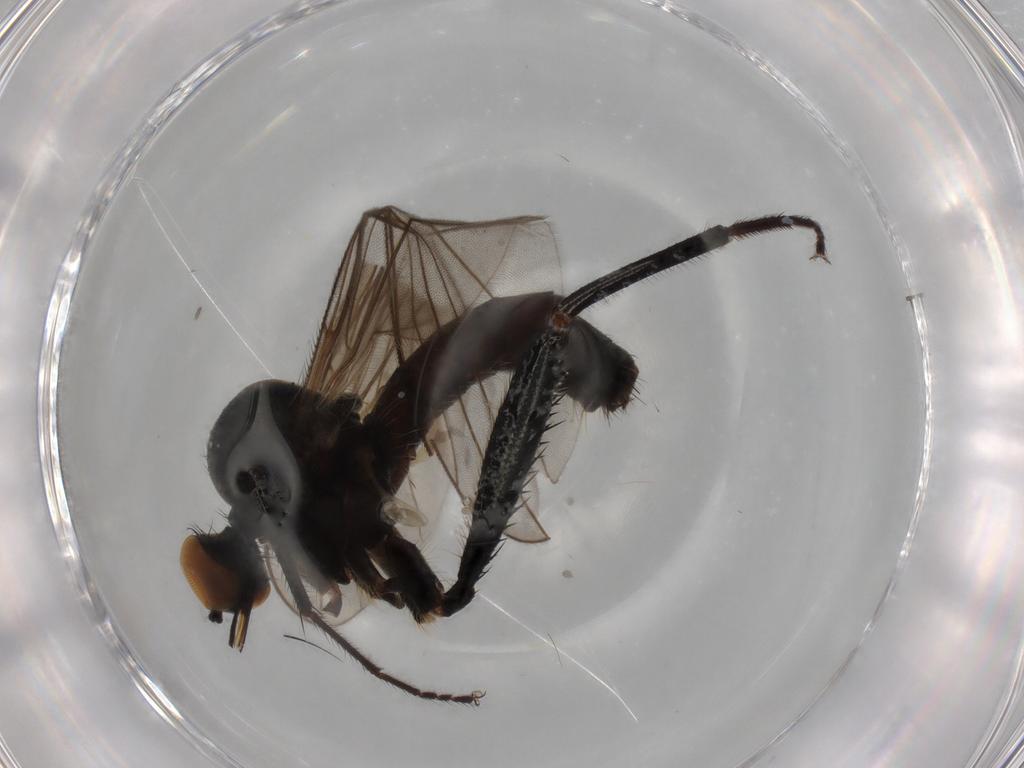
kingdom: Animalia
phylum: Arthropoda
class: Insecta
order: Diptera
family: Hybotidae
